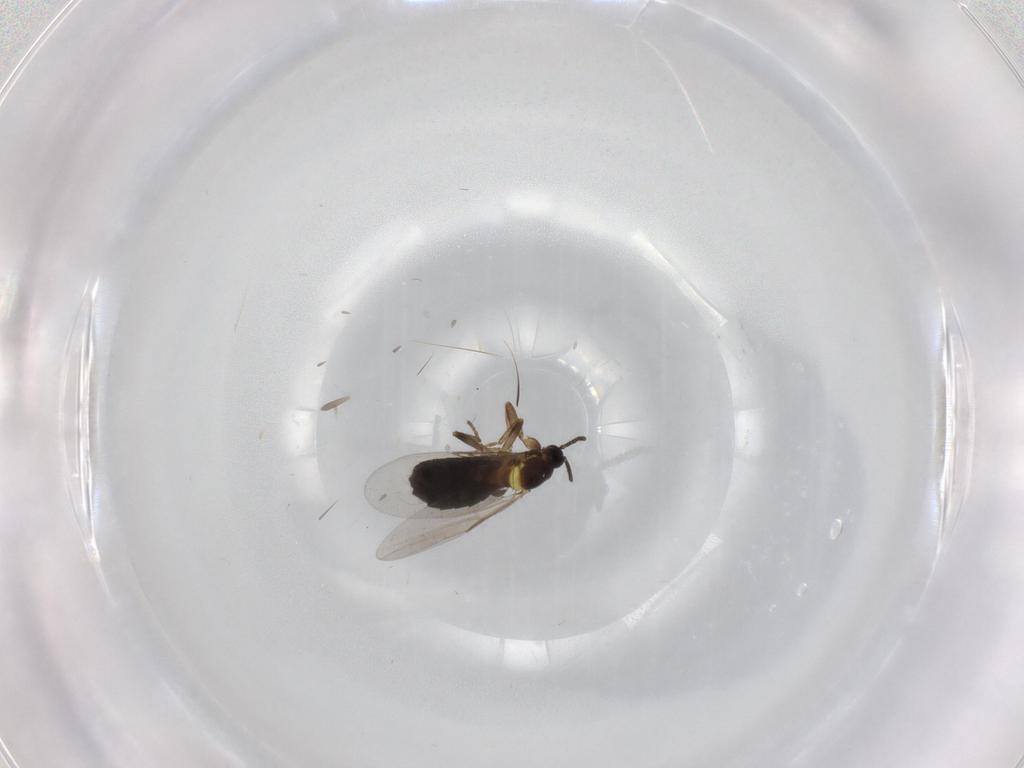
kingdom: Animalia
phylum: Arthropoda
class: Insecta
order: Diptera
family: Scatopsidae
